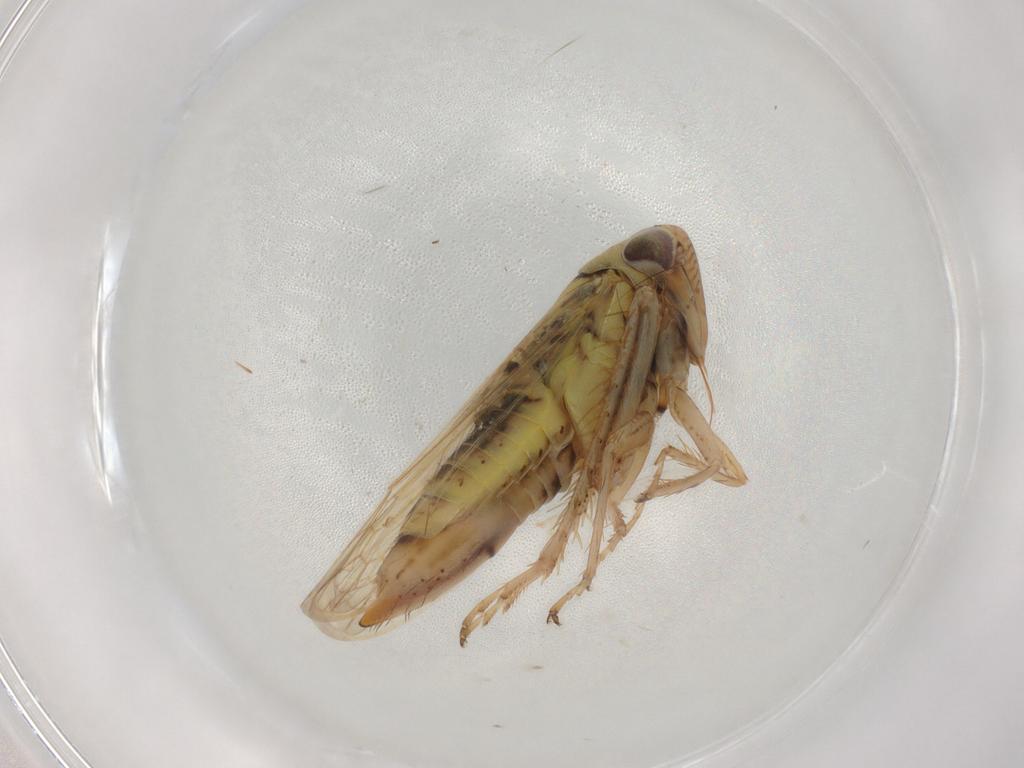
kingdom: Animalia
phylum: Arthropoda
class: Insecta
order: Hemiptera
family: Cicadellidae
